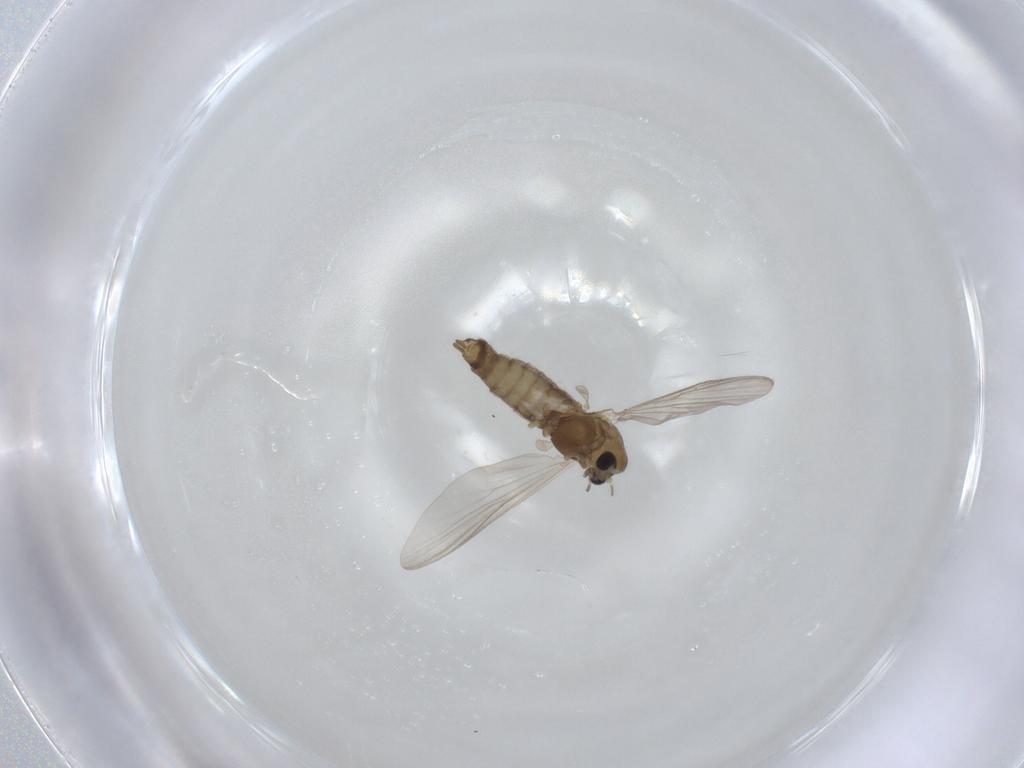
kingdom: Animalia
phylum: Arthropoda
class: Insecta
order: Diptera
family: Chironomidae
